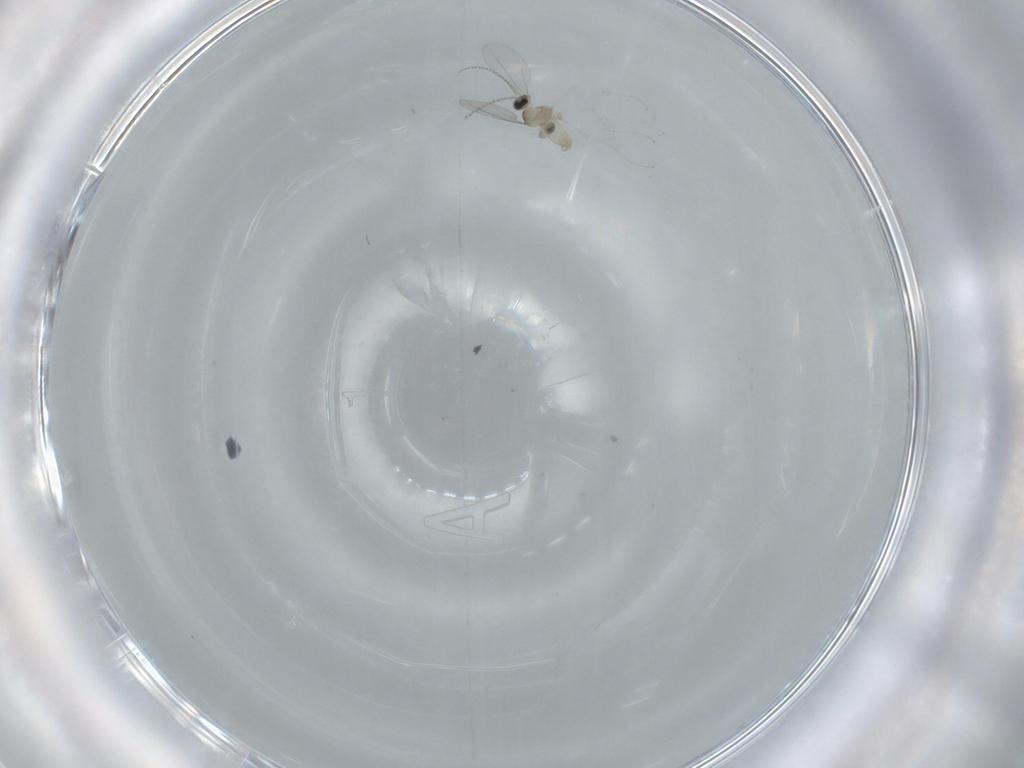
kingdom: Animalia
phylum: Arthropoda
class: Insecta
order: Diptera
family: Cecidomyiidae
